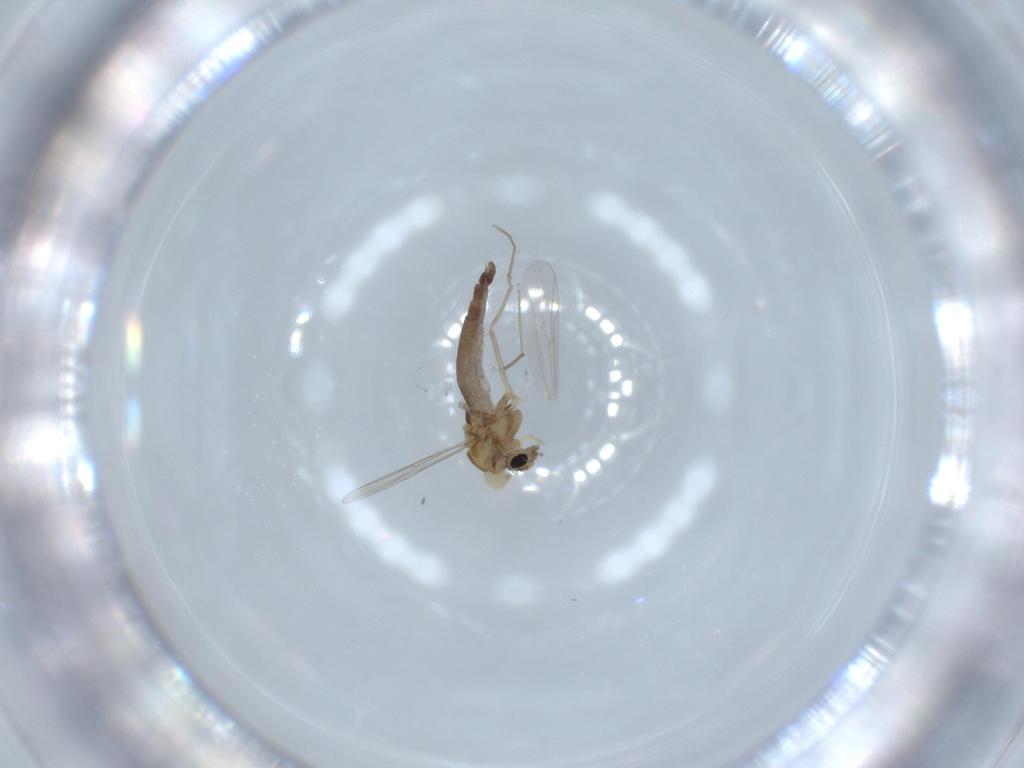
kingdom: Animalia
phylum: Arthropoda
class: Insecta
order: Diptera
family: Chironomidae
